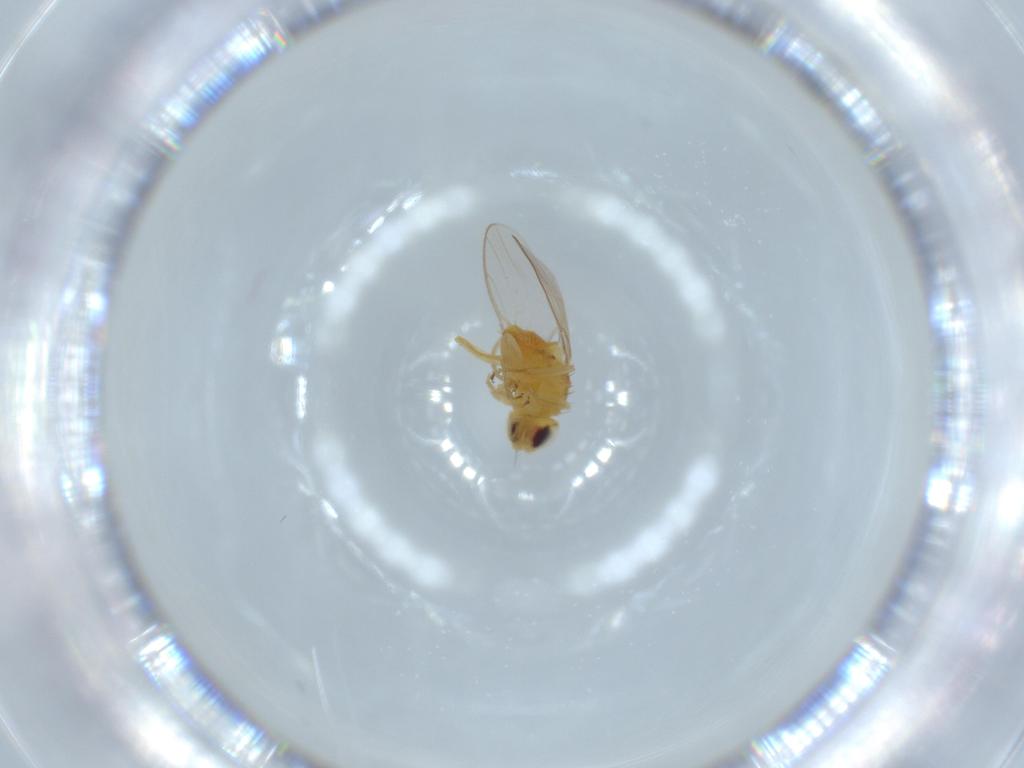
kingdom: Animalia
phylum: Arthropoda
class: Insecta
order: Diptera
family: Chloropidae
